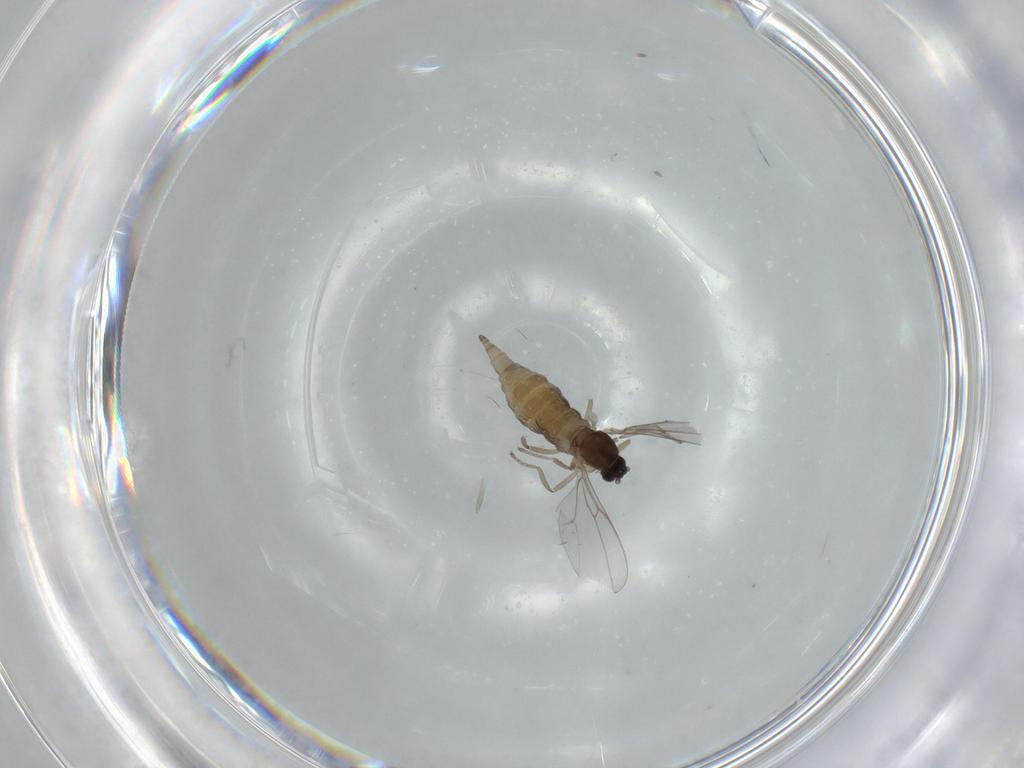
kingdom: Animalia
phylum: Arthropoda
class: Insecta
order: Diptera
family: Cecidomyiidae
